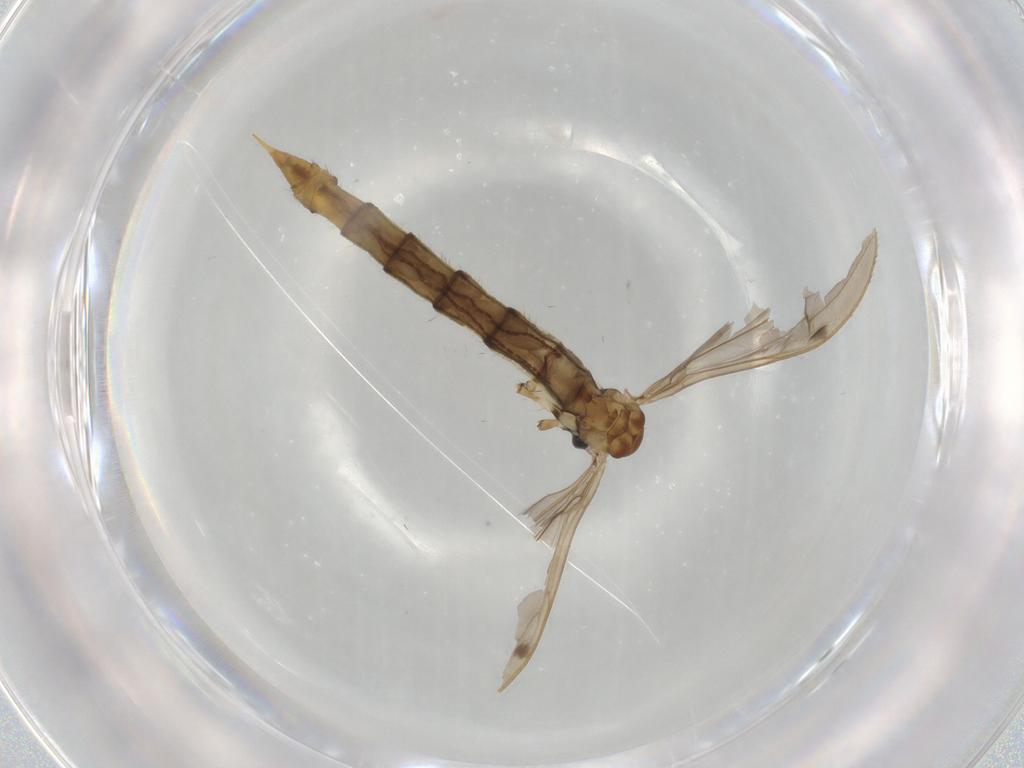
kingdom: Animalia
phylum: Arthropoda
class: Insecta
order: Diptera
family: Limoniidae
